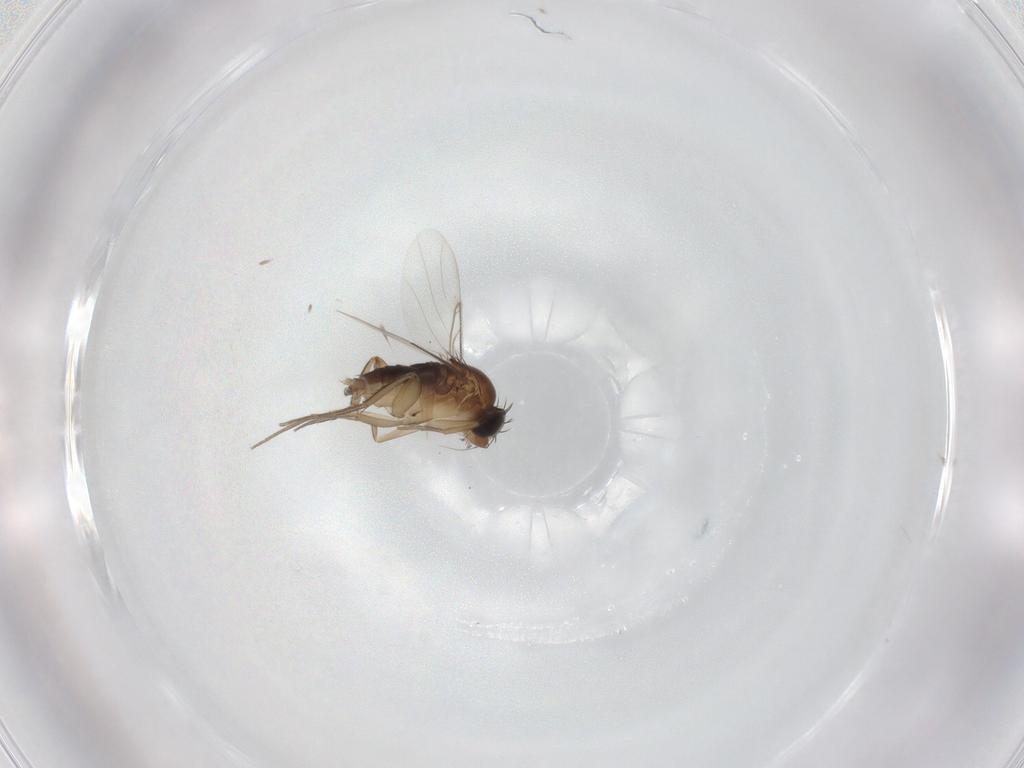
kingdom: Animalia
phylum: Arthropoda
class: Insecta
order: Diptera
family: Phoridae
